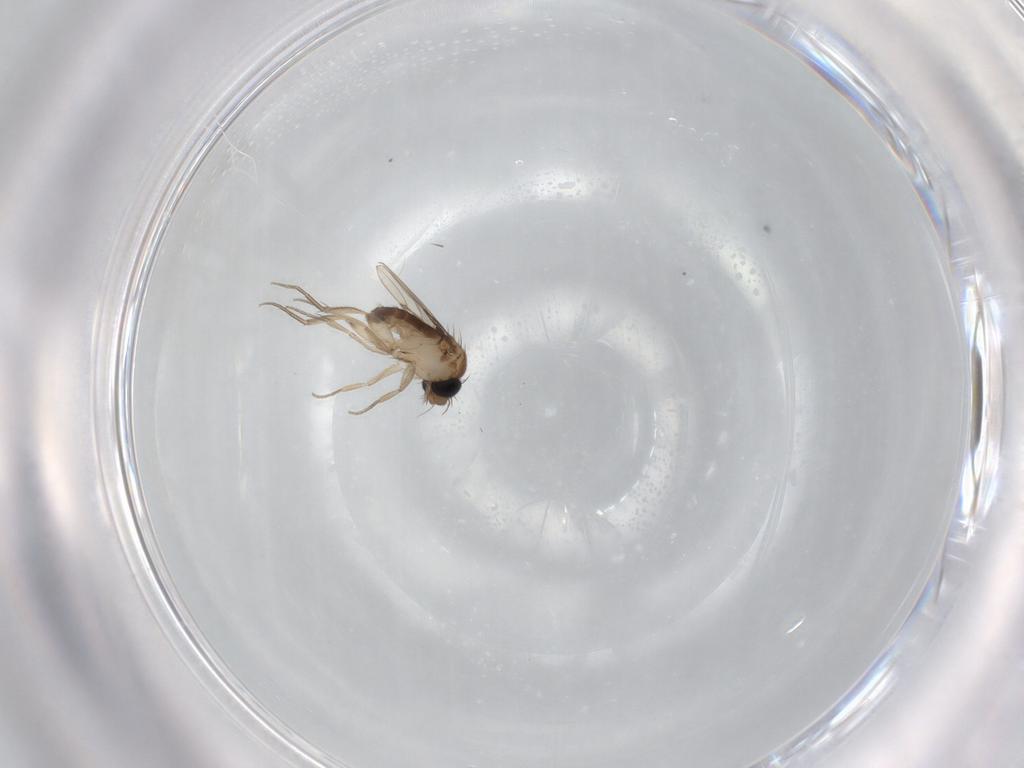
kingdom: Animalia
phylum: Arthropoda
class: Insecta
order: Diptera
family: Phoridae
